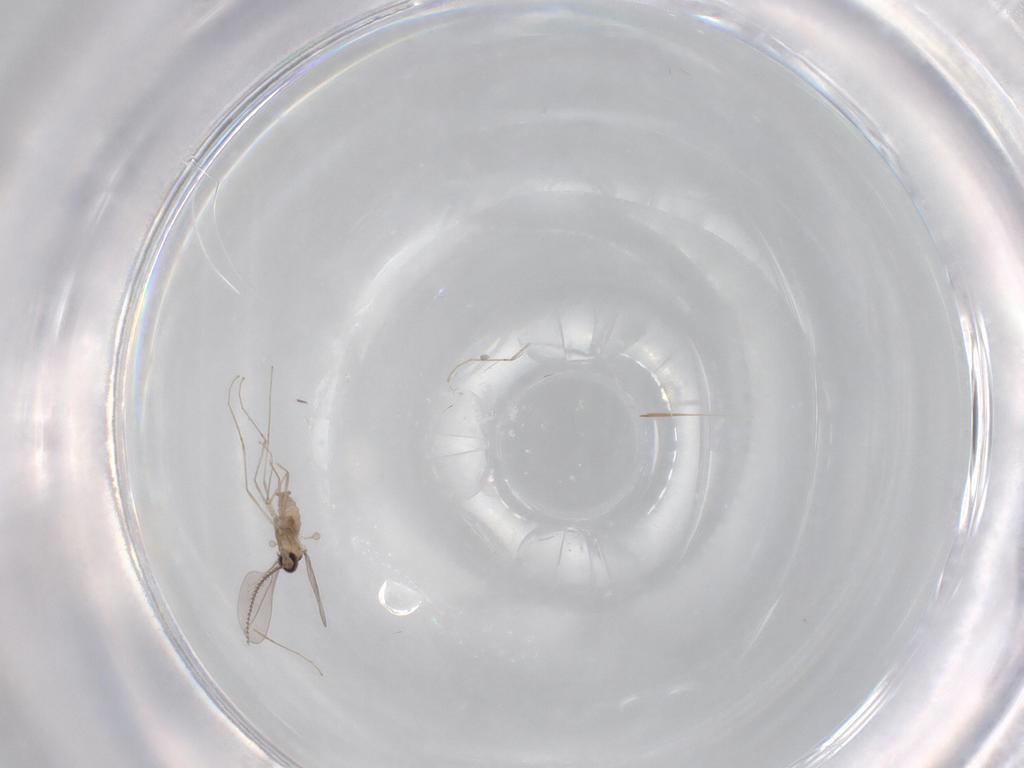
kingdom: Animalia
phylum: Arthropoda
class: Insecta
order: Diptera
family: Cecidomyiidae
